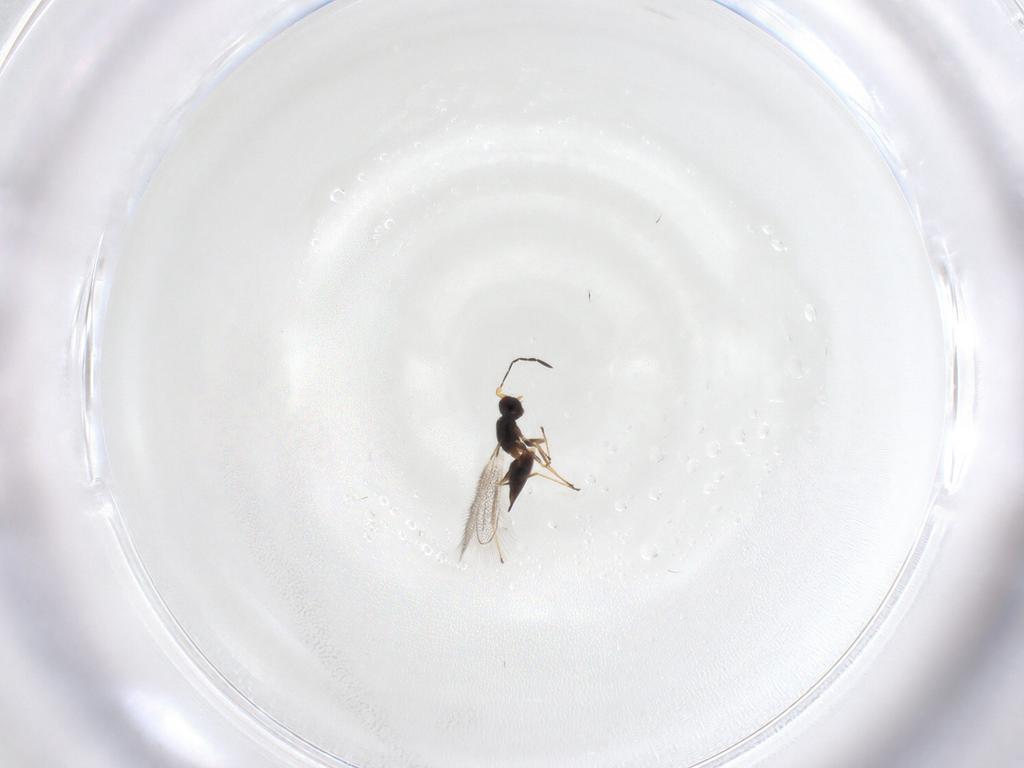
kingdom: Animalia
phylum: Arthropoda
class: Insecta
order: Hymenoptera
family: Mymaridae
